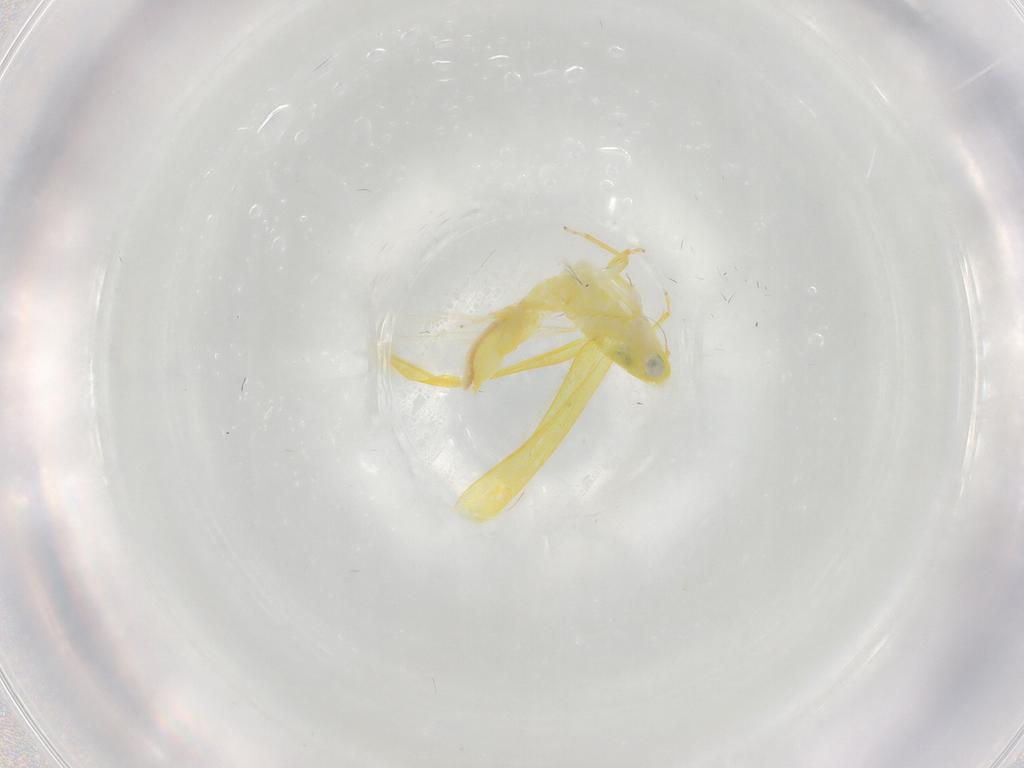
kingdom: Animalia
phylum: Arthropoda
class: Insecta
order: Hemiptera
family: Cicadellidae
